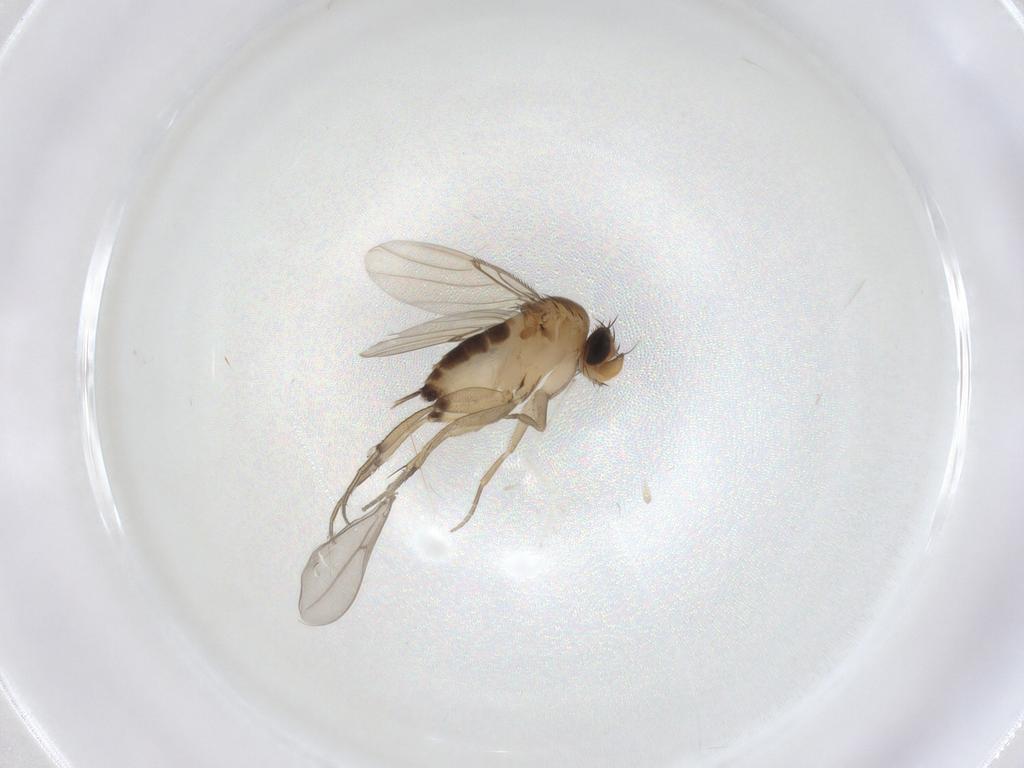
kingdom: Animalia
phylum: Arthropoda
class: Insecta
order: Diptera
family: Phoridae
